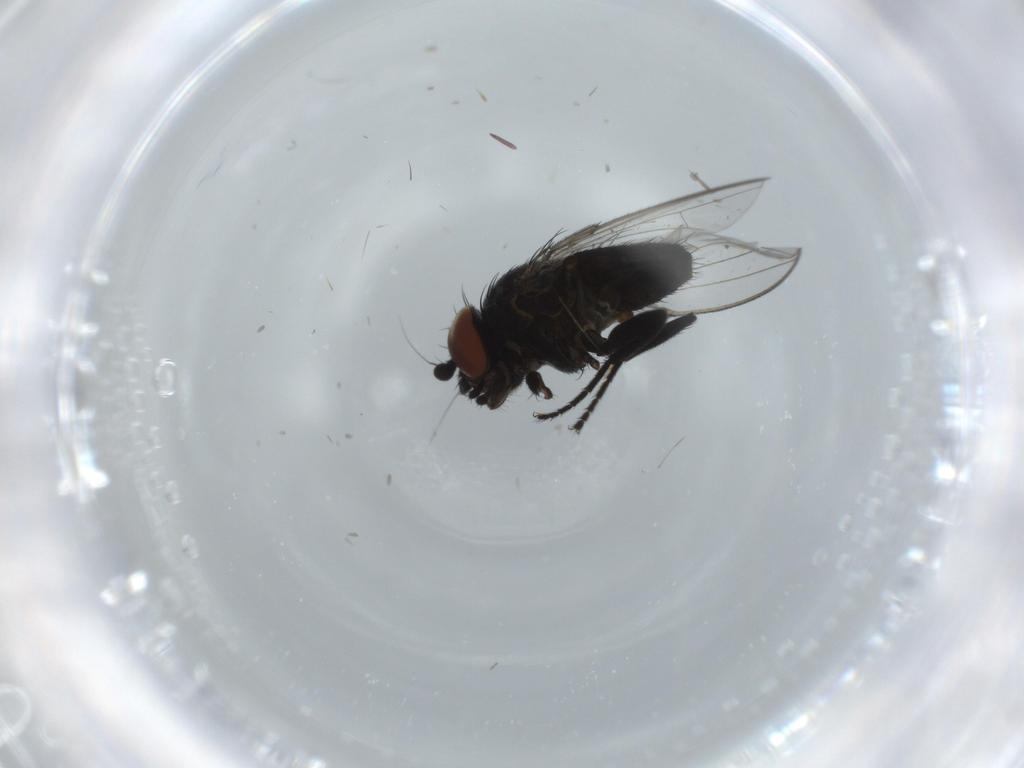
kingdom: Animalia
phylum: Arthropoda
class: Insecta
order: Diptera
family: Milichiidae
